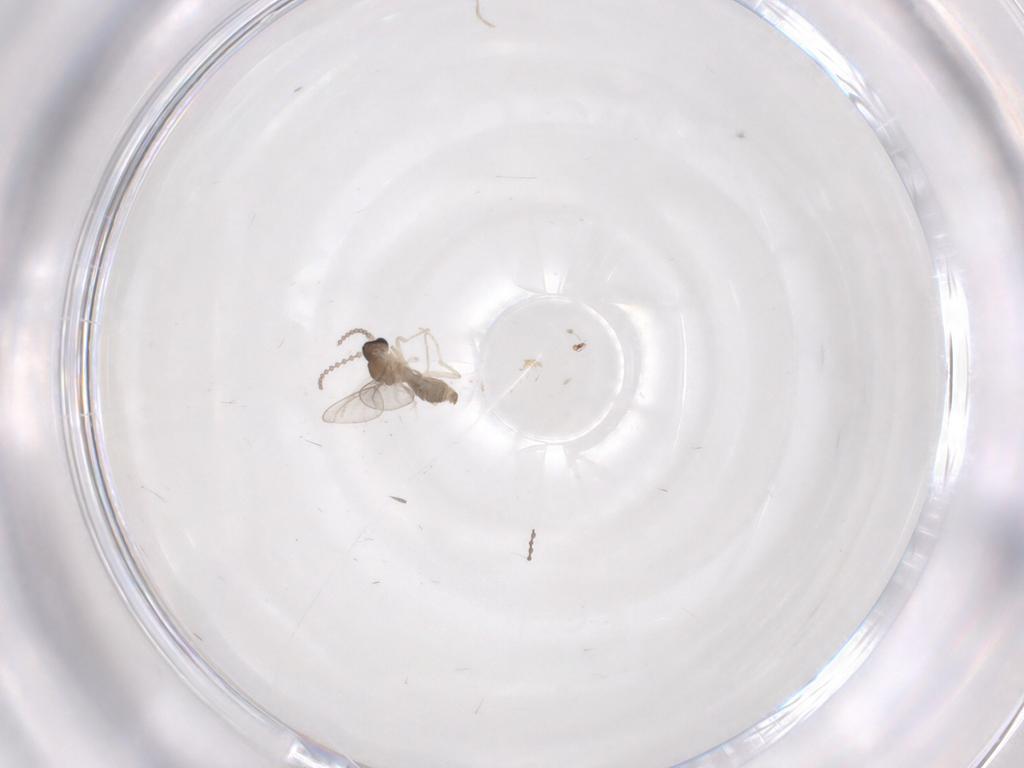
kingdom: Animalia
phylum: Arthropoda
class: Insecta
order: Diptera
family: Cecidomyiidae
